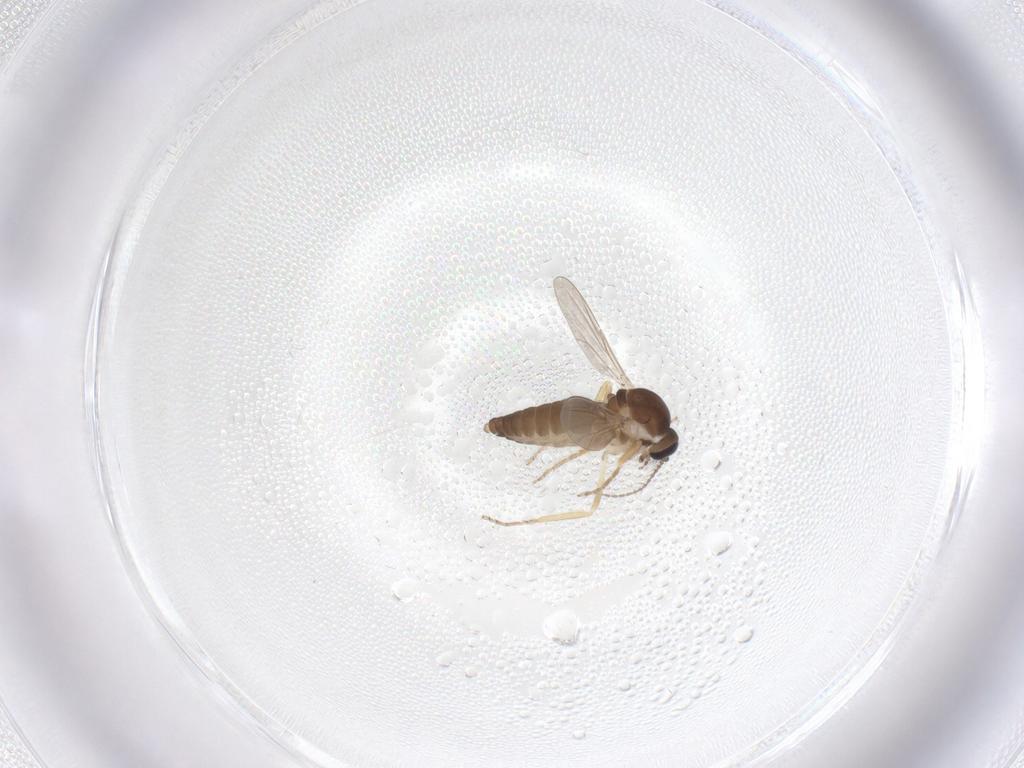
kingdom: Animalia
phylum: Arthropoda
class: Insecta
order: Diptera
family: Ceratopogonidae
